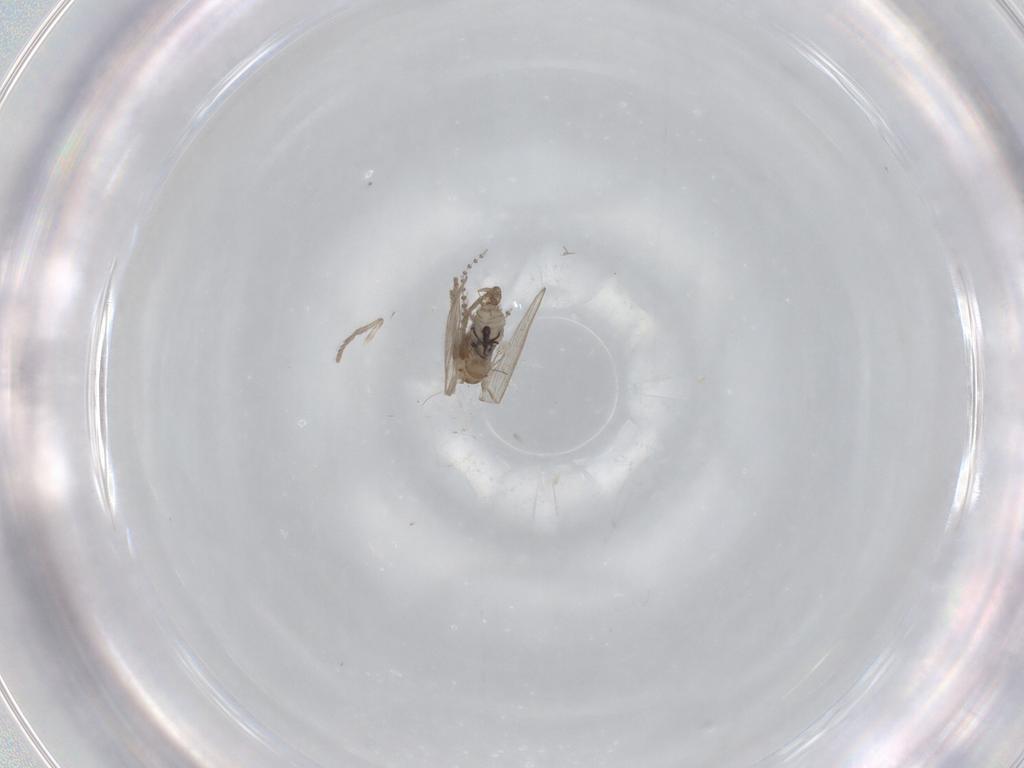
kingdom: Animalia
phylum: Arthropoda
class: Insecta
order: Diptera
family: Psychodidae
